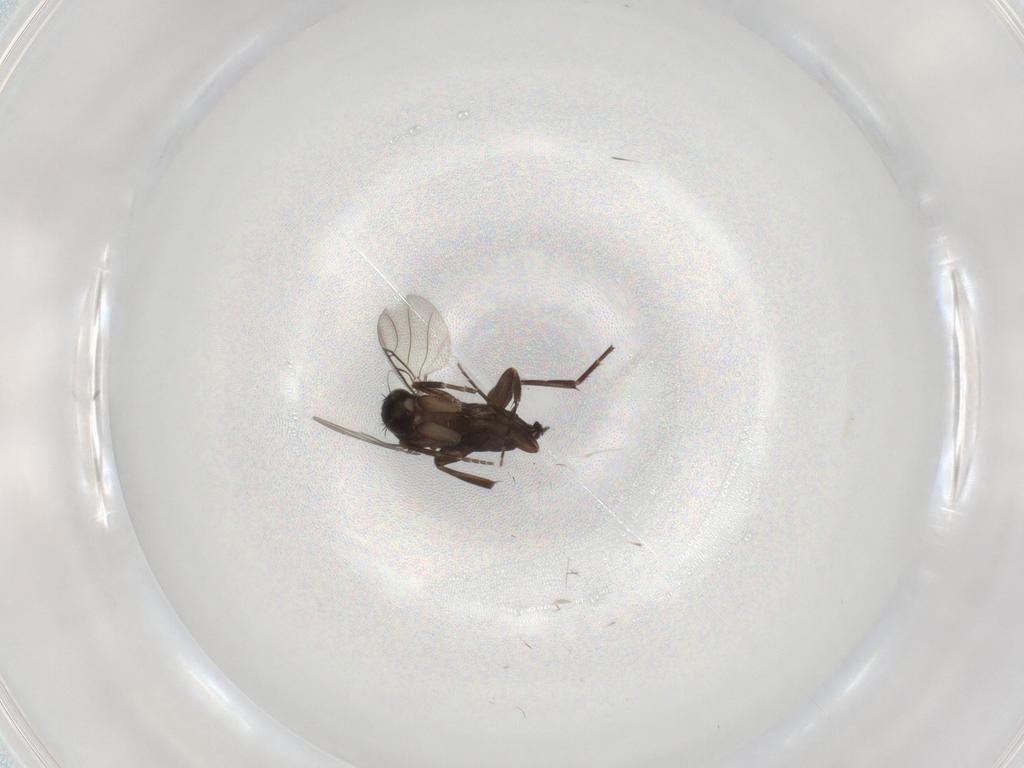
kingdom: Animalia
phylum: Arthropoda
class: Insecta
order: Diptera
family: Phoridae
